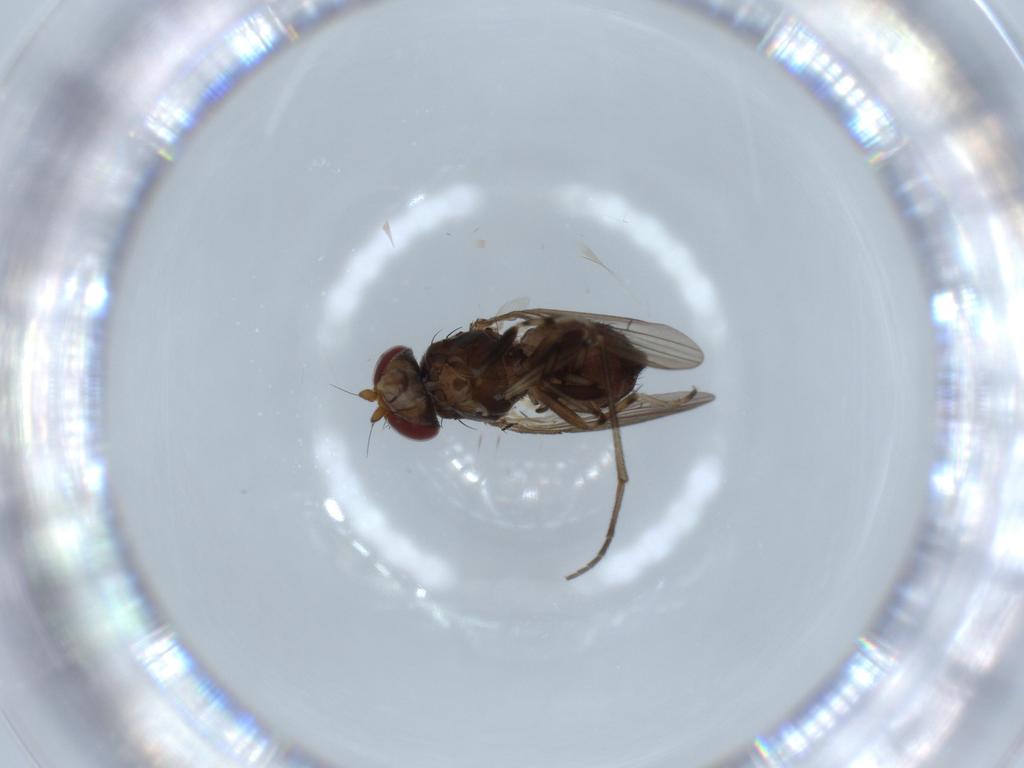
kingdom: Animalia
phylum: Arthropoda
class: Insecta
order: Diptera
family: Heleomyzidae
